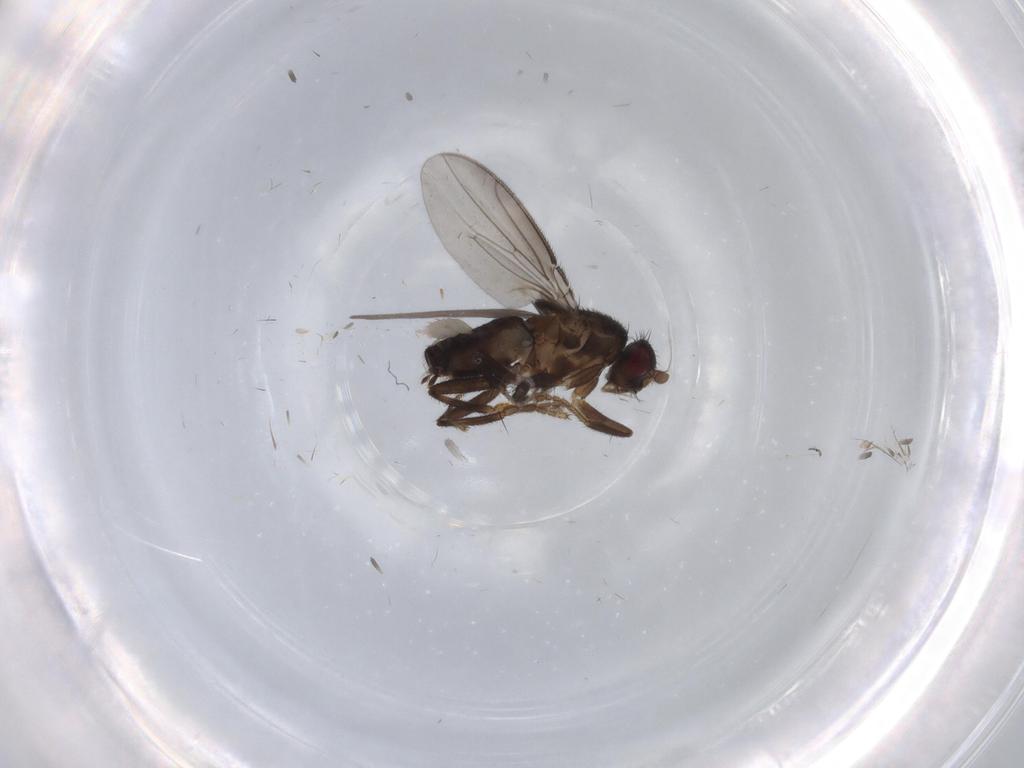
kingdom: Animalia
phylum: Arthropoda
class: Insecta
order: Diptera
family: Sphaeroceridae
